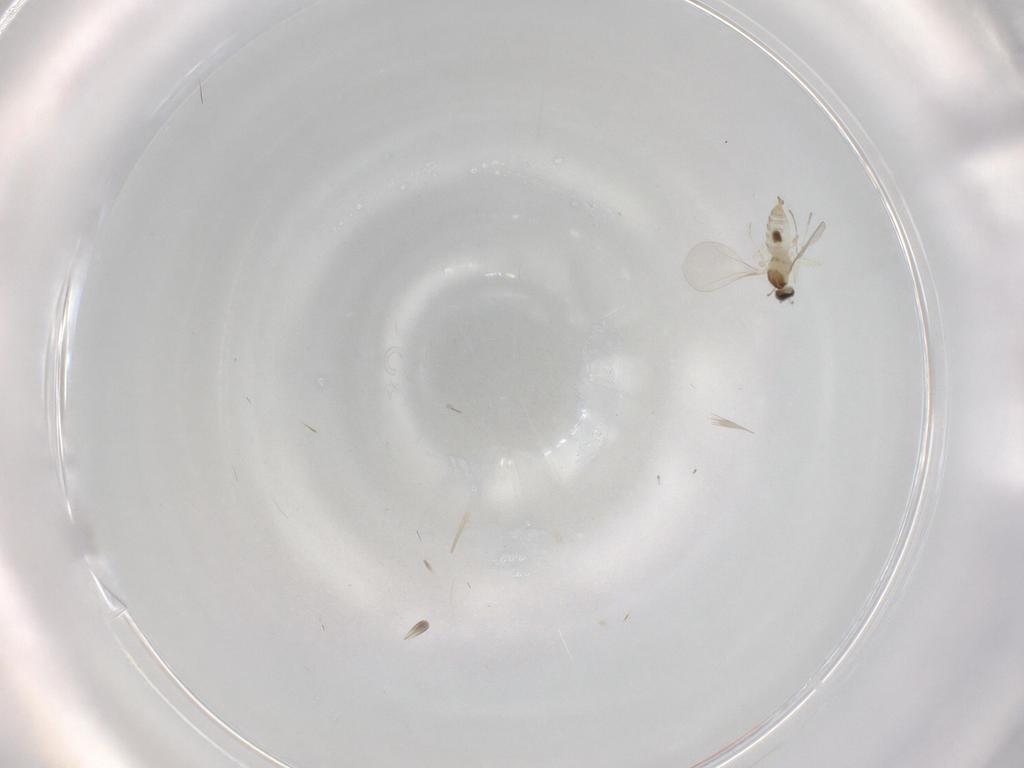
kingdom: Animalia
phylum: Arthropoda
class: Insecta
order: Diptera
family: Cecidomyiidae
